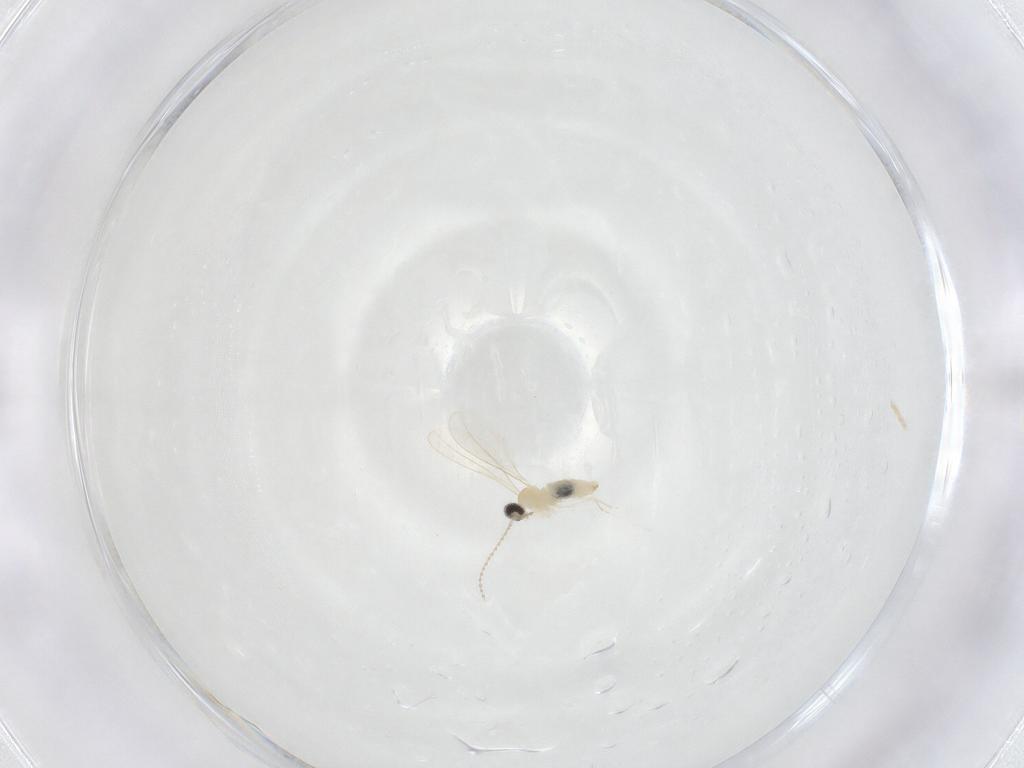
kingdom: Animalia
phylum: Arthropoda
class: Insecta
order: Diptera
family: Cecidomyiidae
